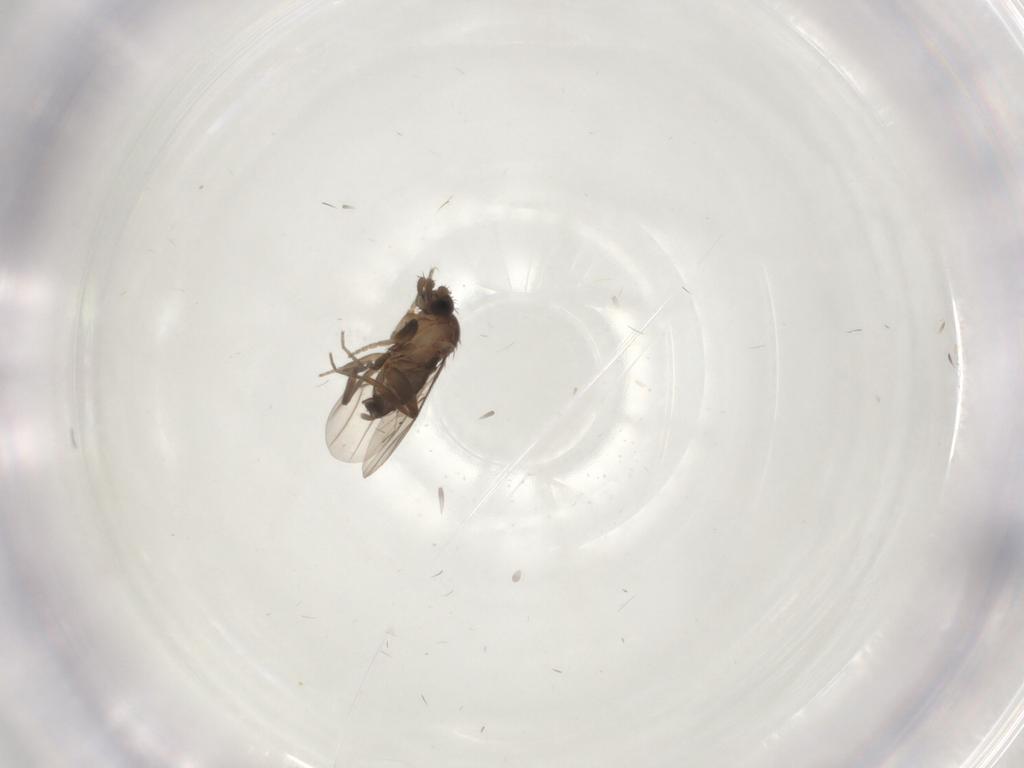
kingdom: Animalia
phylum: Arthropoda
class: Insecta
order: Diptera
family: Phoridae
